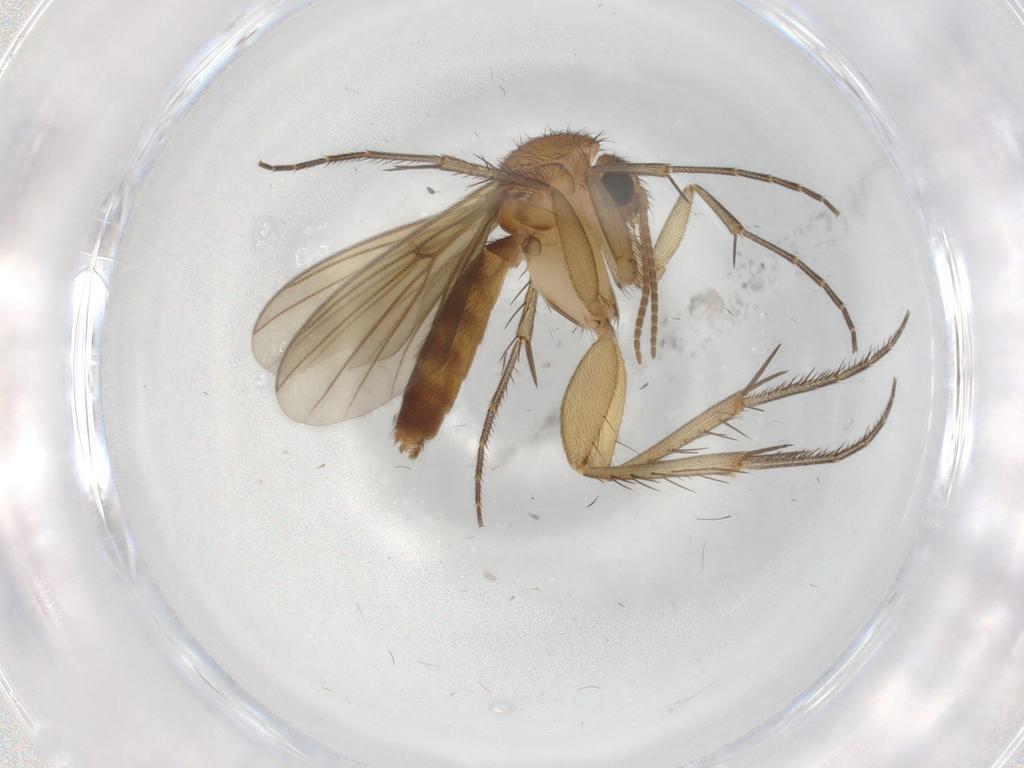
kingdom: Animalia
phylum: Arthropoda
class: Insecta
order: Diptera
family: Mycetophilidae
